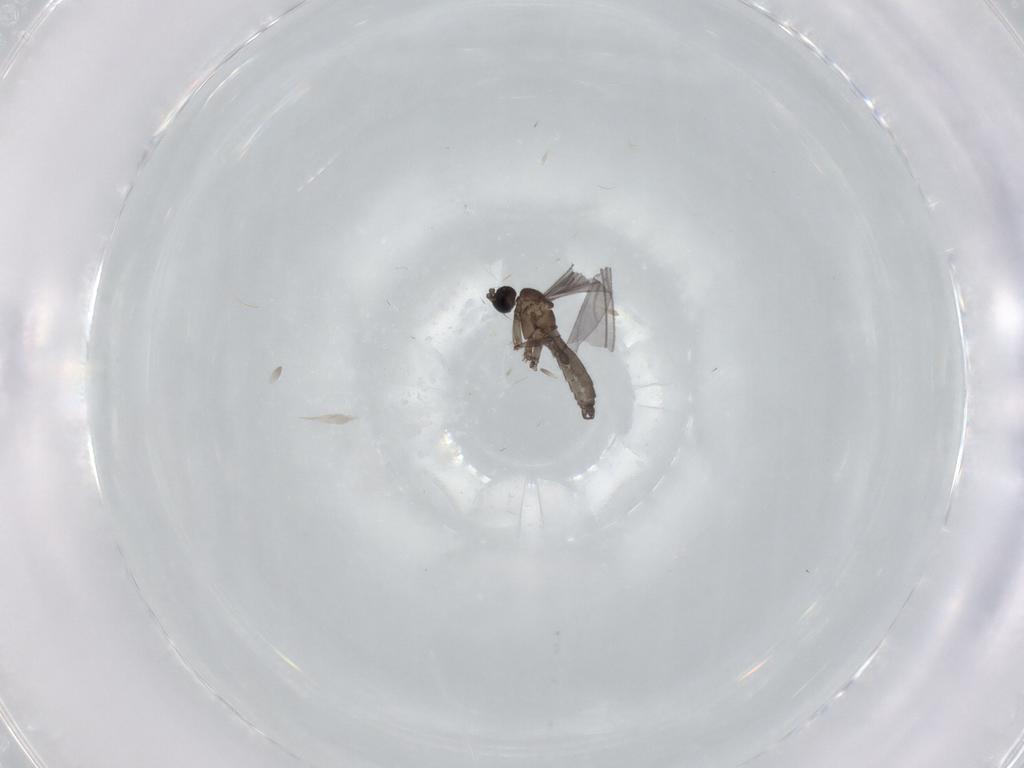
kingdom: Animalia
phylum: Arthropoda
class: Insecta
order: Diptera
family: Sciaridae
